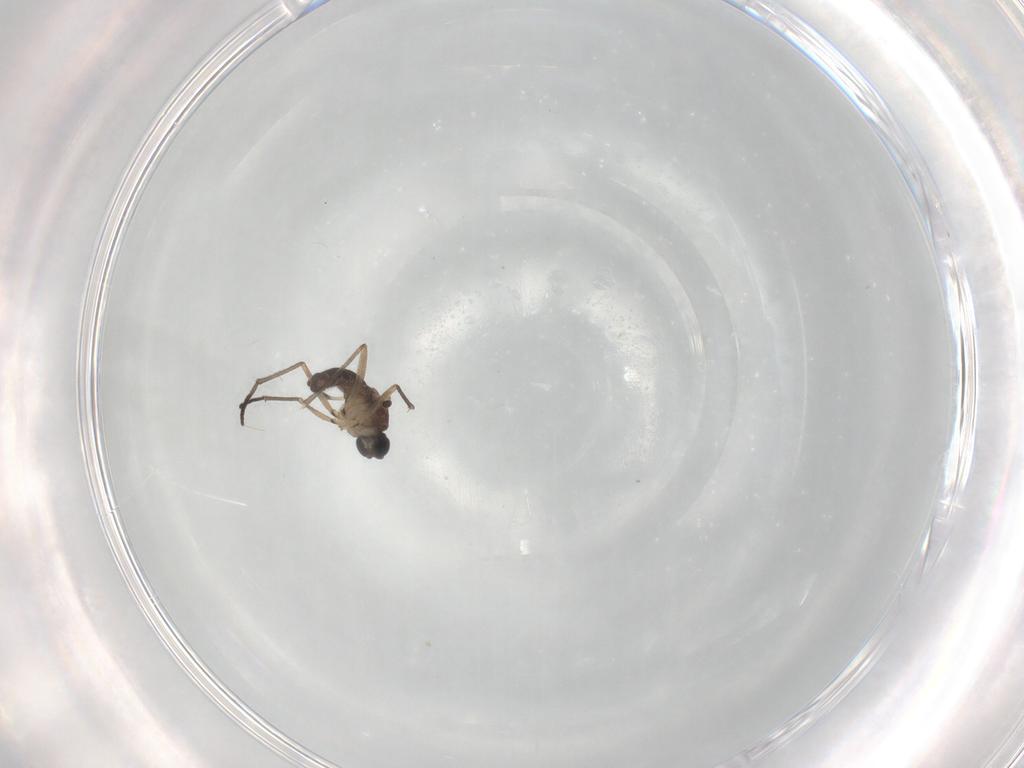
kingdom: Animalia
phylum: Arthropoda
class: Insecta
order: Diptera
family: Sciaridae
